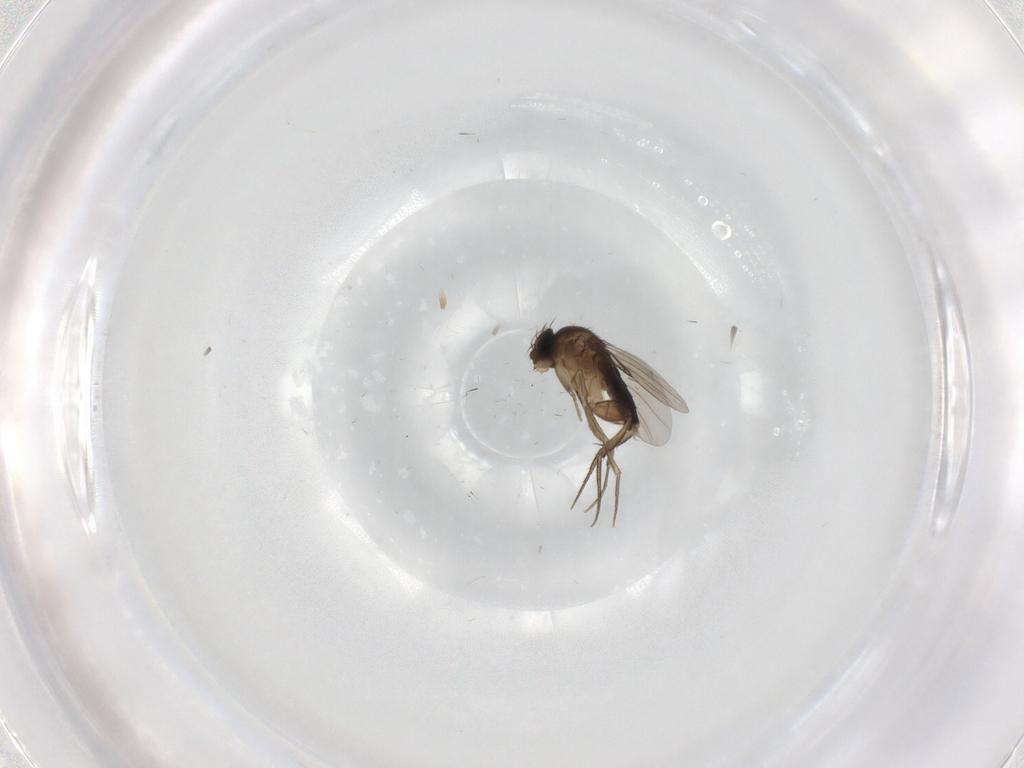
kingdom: Animalia
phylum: Arthropoda
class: Insecta
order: Diptera
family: Phoridae
